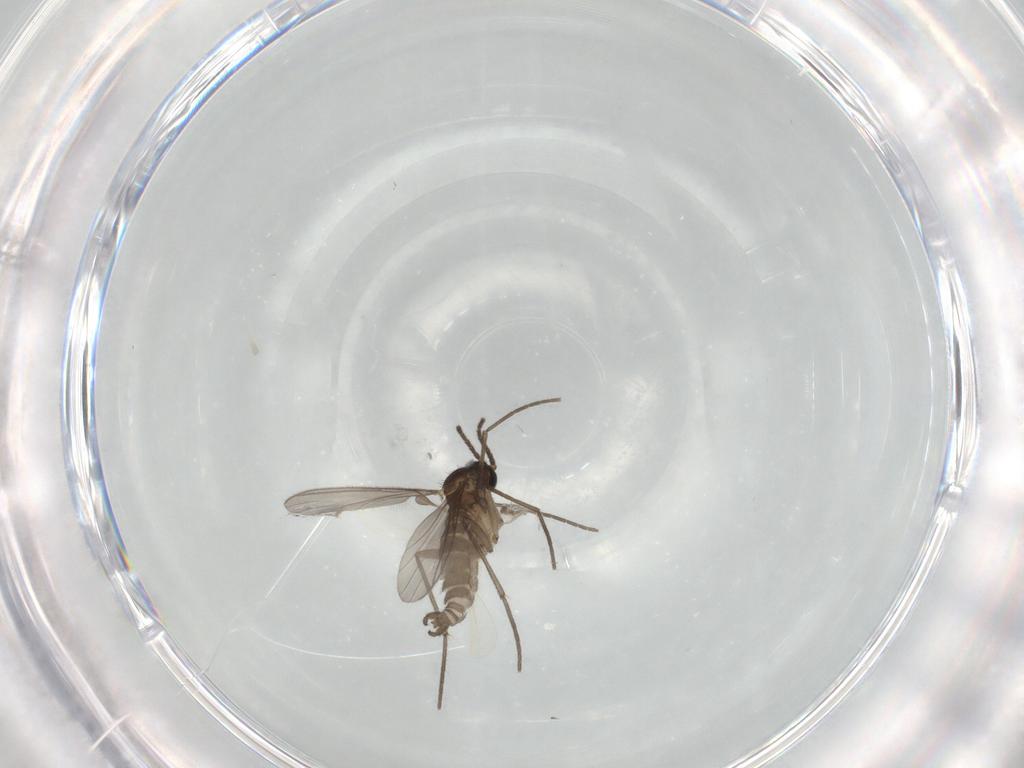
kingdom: Animalia
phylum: Arthropoda
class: Insecta
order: Diptera
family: Sciaridae
